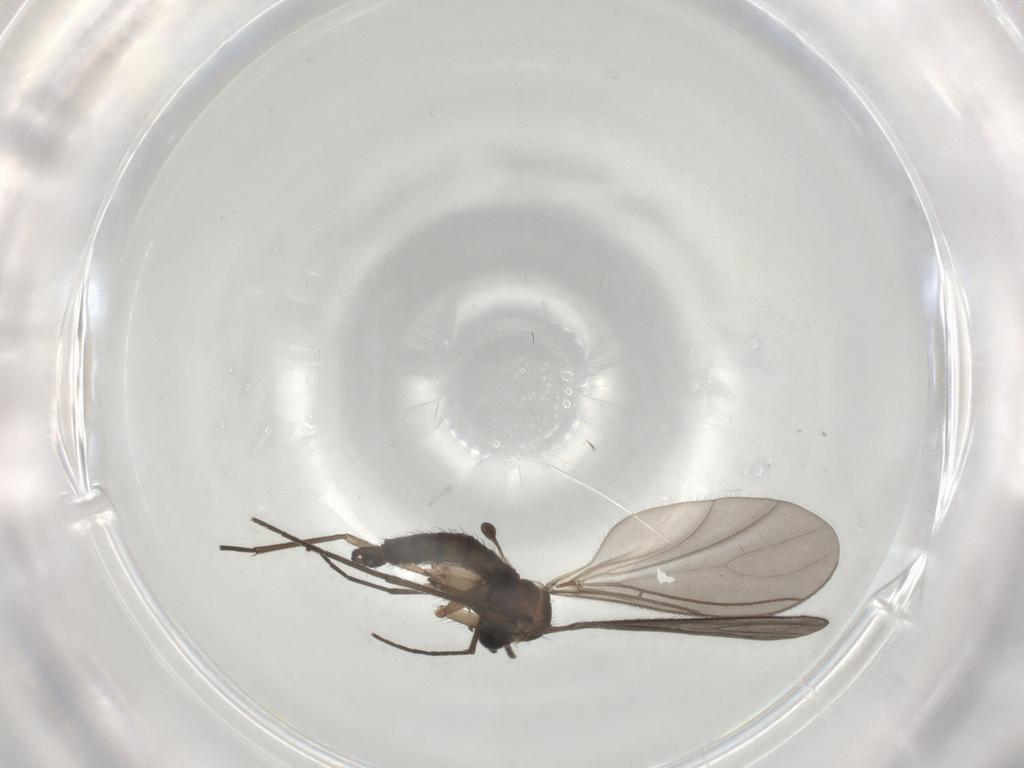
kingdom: Animalia
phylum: Arthropoda
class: Insecta
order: Diptera
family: Sciaridae
